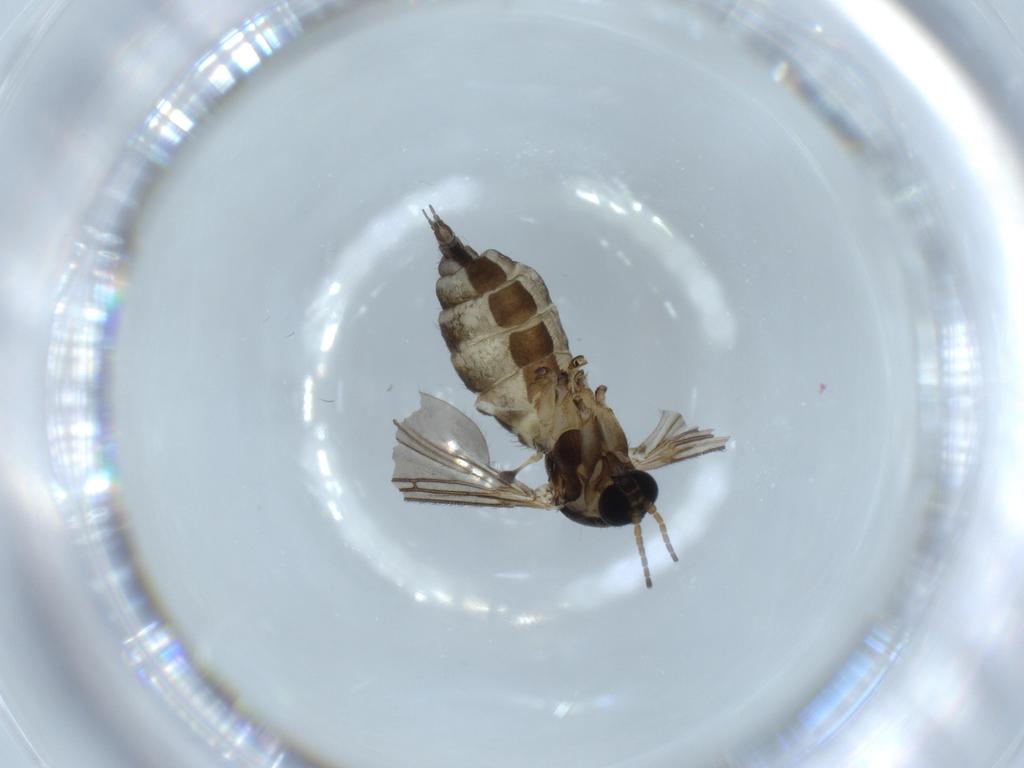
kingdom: Animalia
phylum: Arthropoda
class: Insecta
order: Diptera
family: Sciaridae
